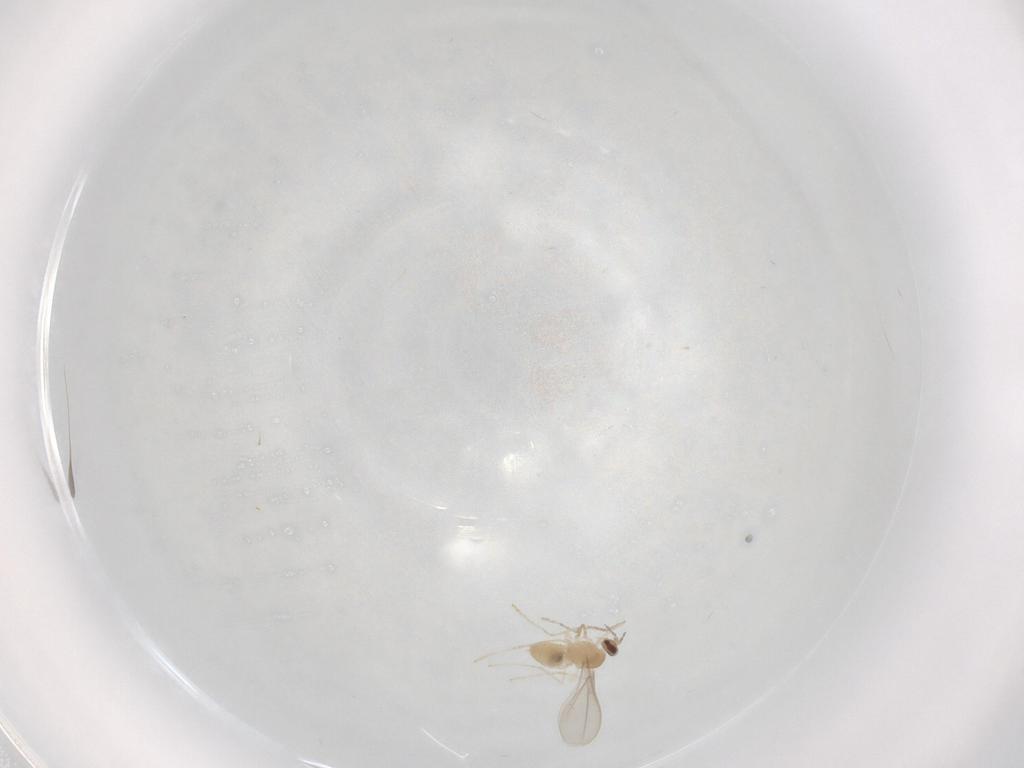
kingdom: Animalia
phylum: Arthropoda
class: Insecta
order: Diptera
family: Cecidomyiidae
